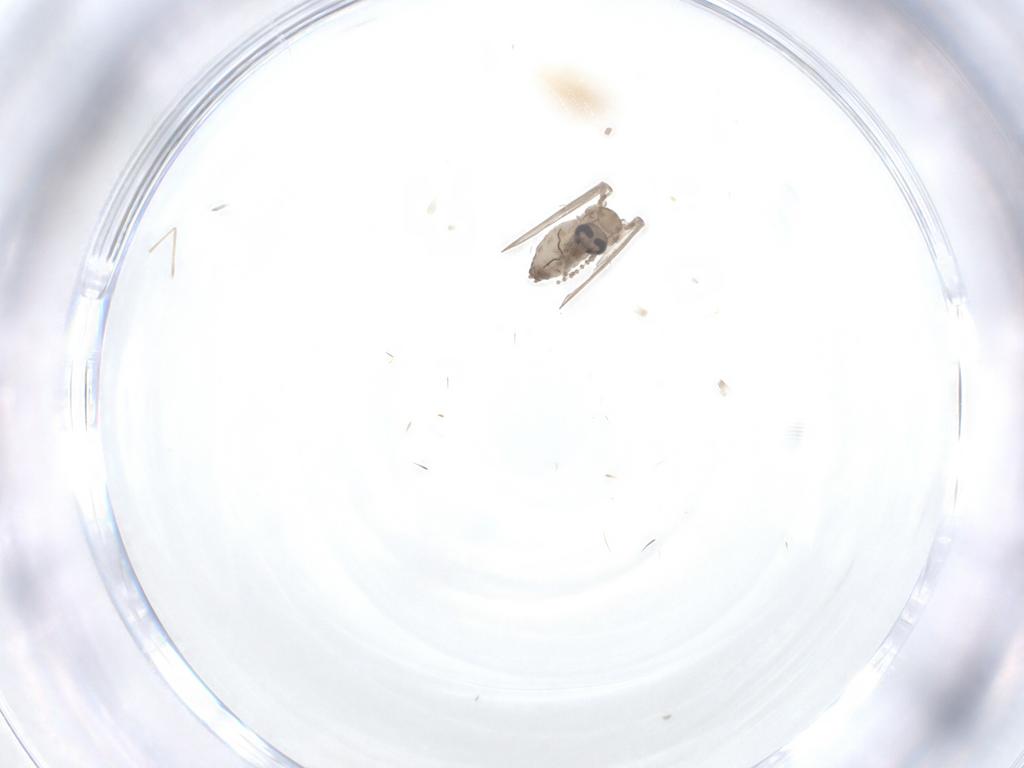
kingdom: Animalia
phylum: Arthropoda
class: Insecta
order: Diptera
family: Psychodidae
